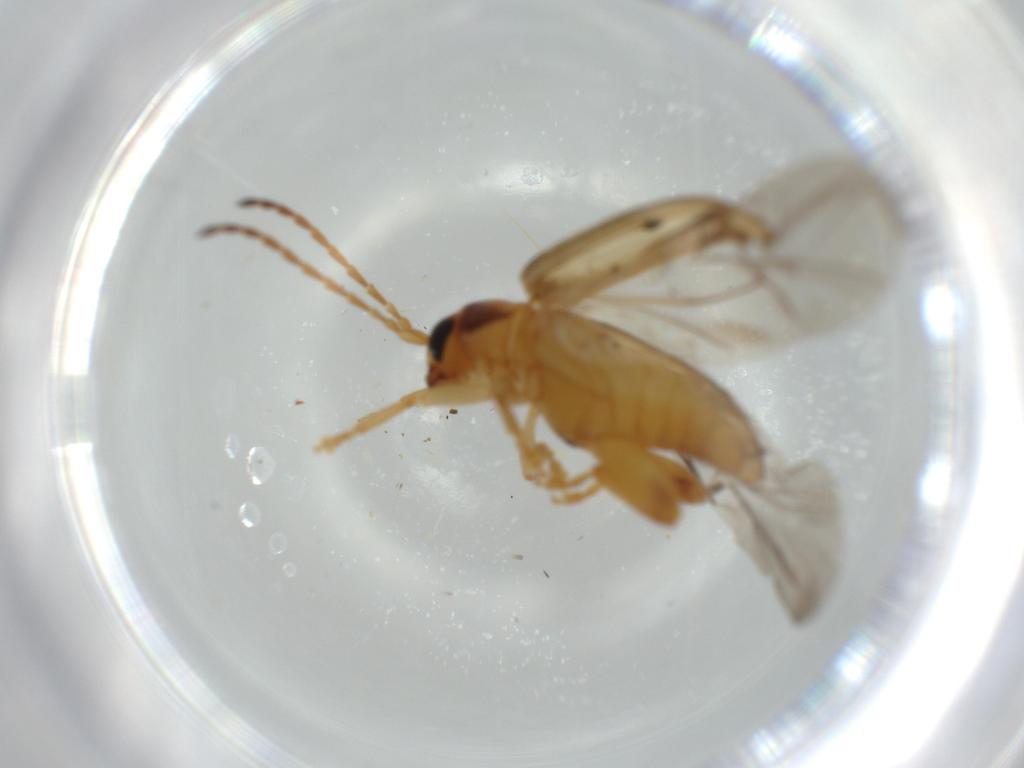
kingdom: Animalia
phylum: Arthropoda
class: Insecta
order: Coleoptera
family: Chrysomelidae
